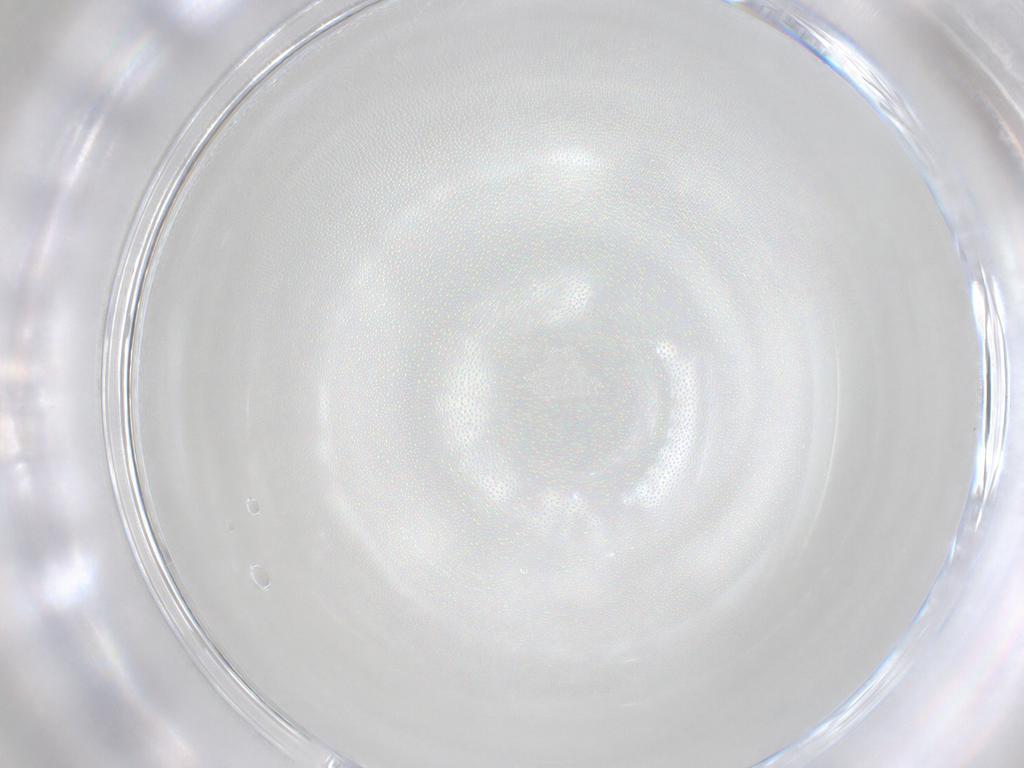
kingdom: Animalia
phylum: Arthropoda
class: Insecta
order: Hymenoptera
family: Mymaridae
